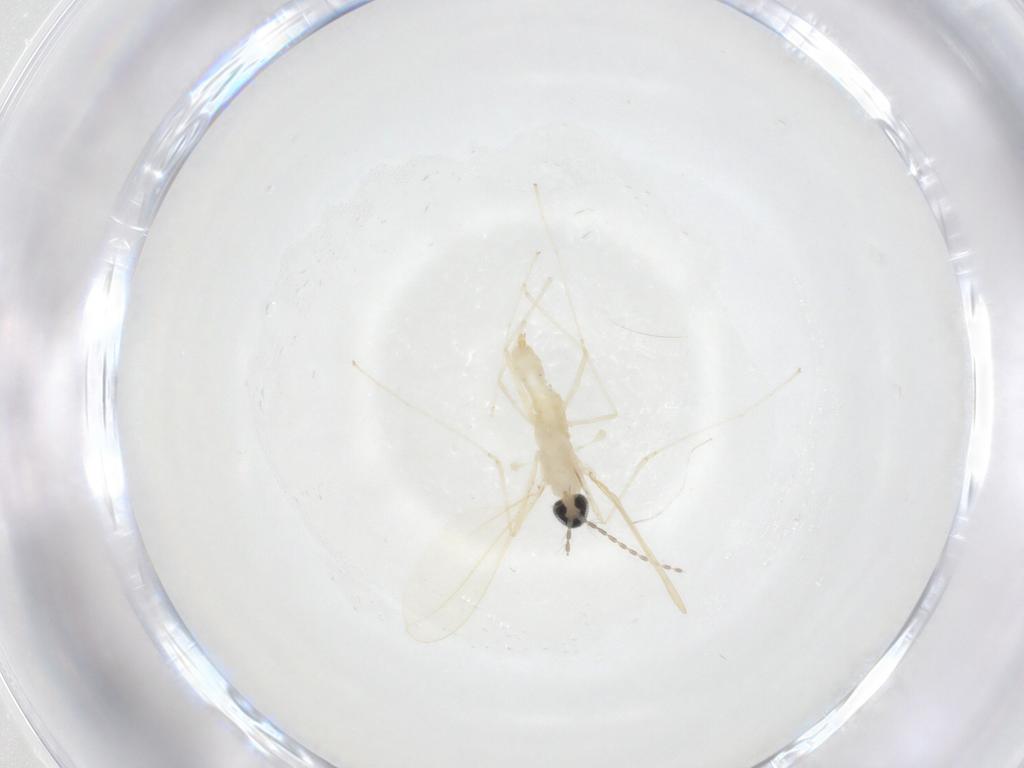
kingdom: Animalia
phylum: Arthropoda
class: Insecta
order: Diptera
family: Cecidomyiidae
